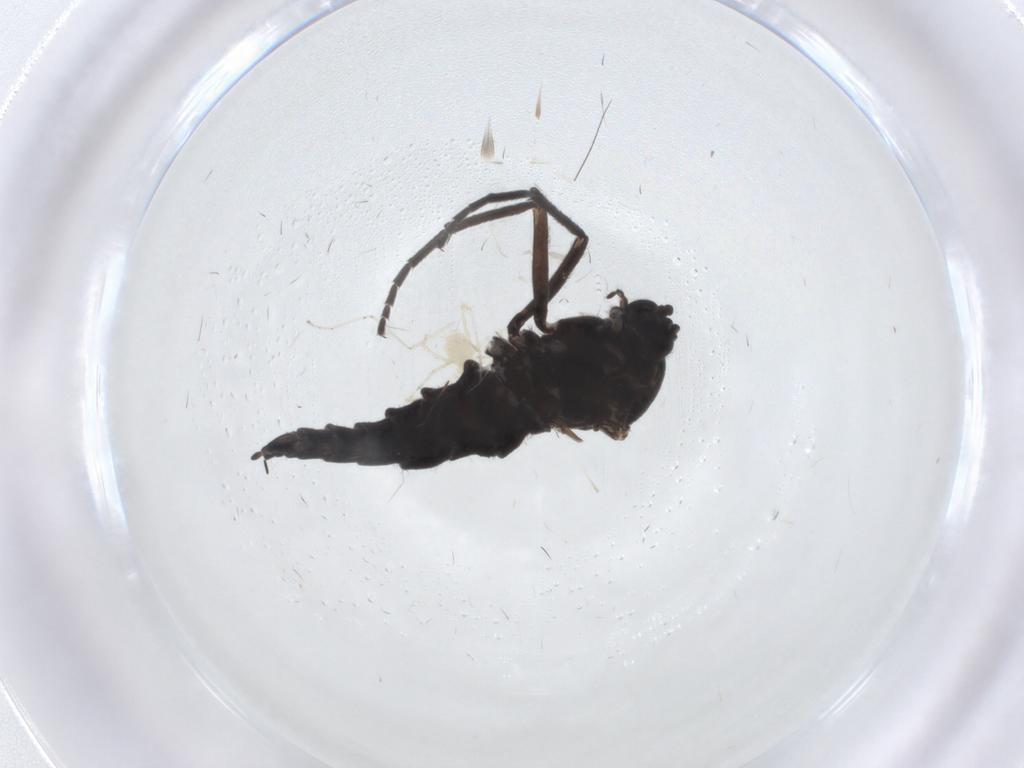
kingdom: Animalia
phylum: Arthropoda
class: Insecta
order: Diptera
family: Sciaridae
